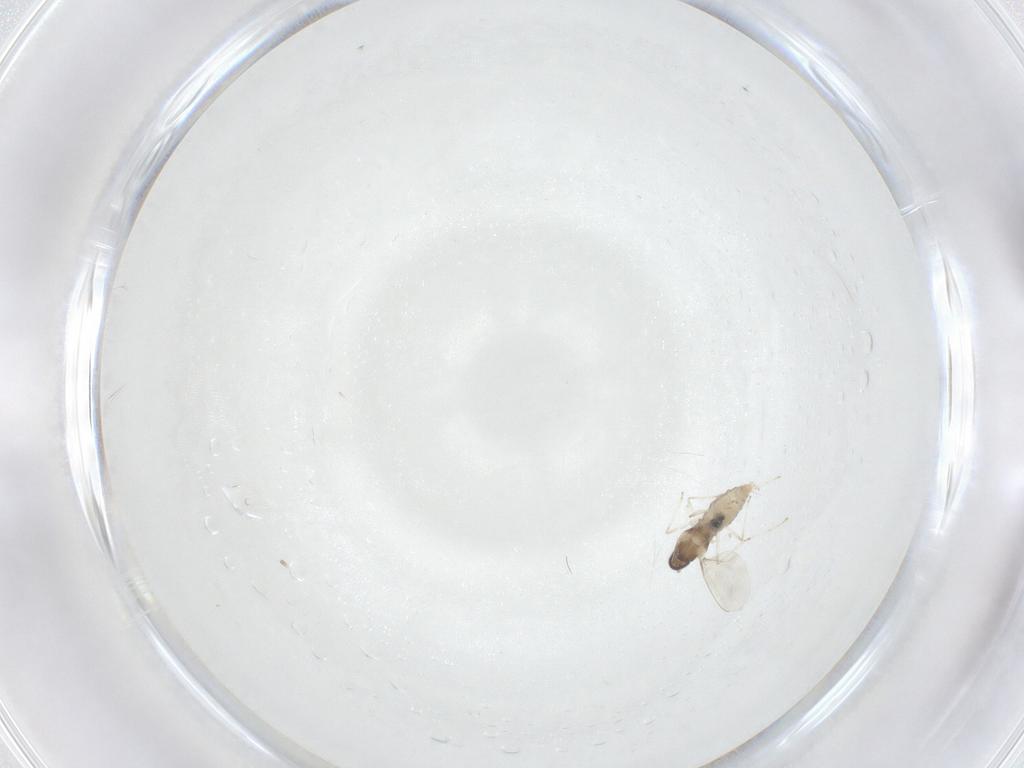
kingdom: Animalia
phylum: Arthropoda
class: Insecta
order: Diptera
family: Cecidomyiidae
